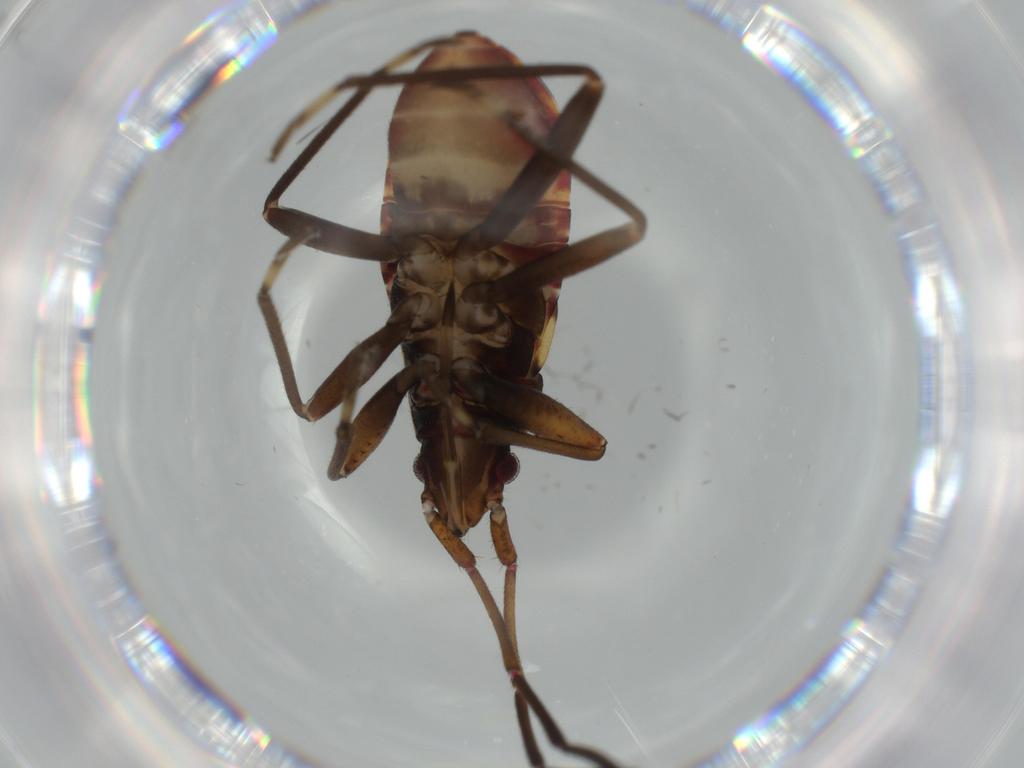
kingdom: Animalia
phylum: Arthropoda
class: Insecta
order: Hemiptera
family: Rhyparochromidae
